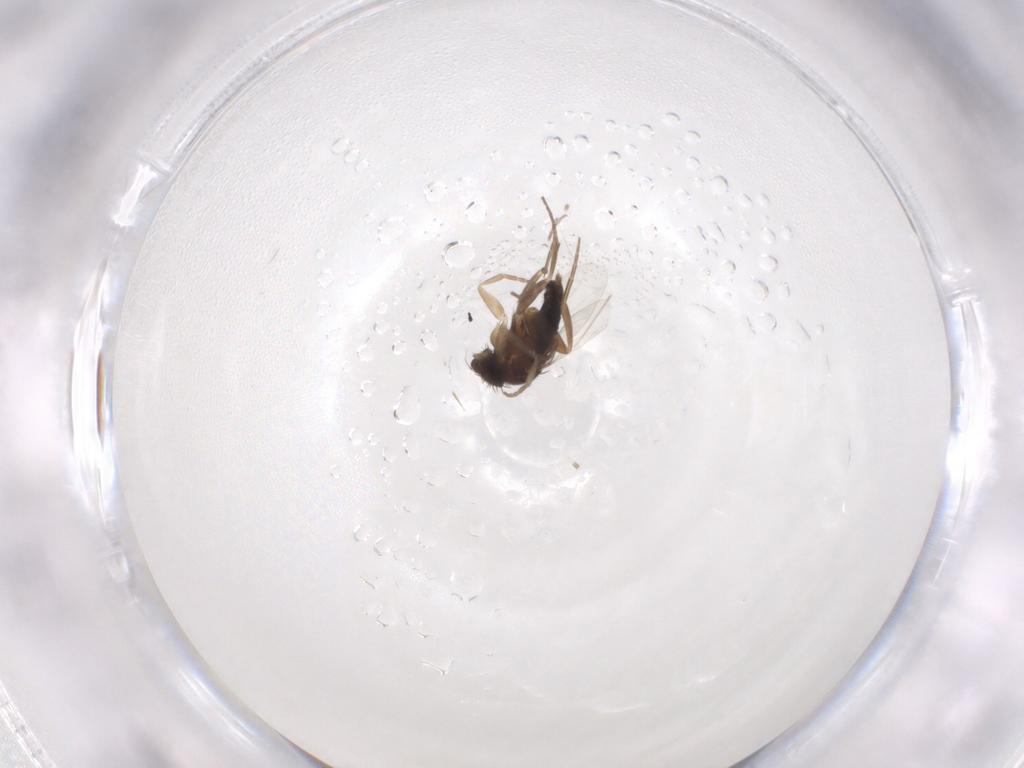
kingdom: Animalia
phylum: Arthropoda
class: Insecta
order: Diptera
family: Phoridae
